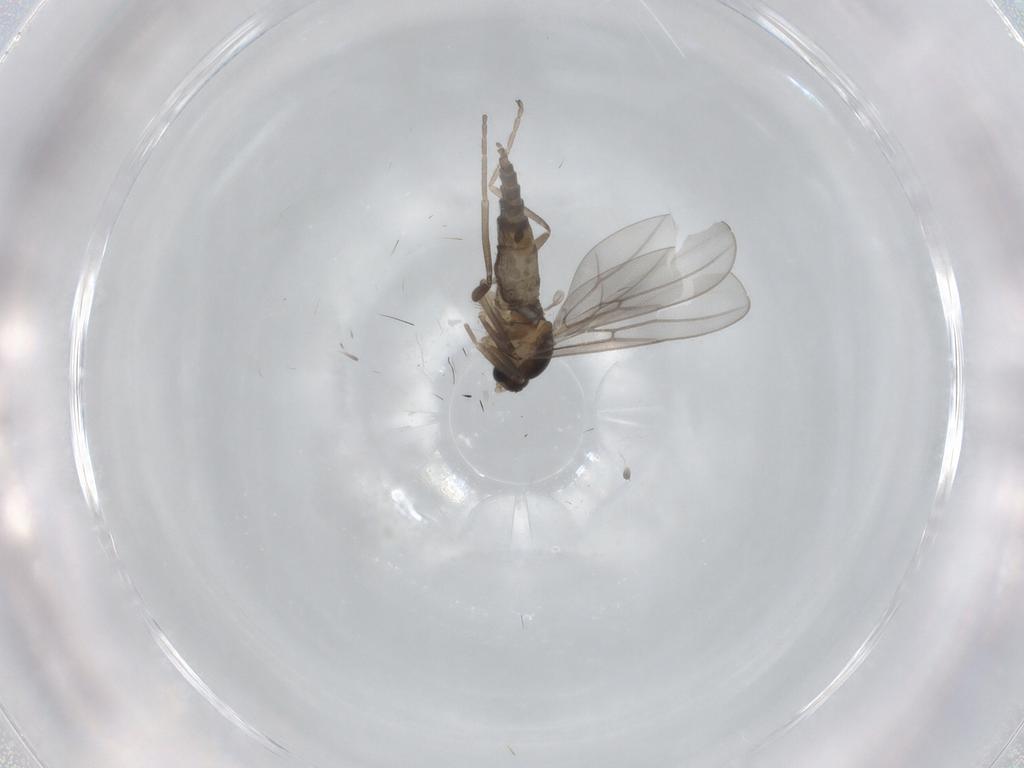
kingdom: Animalia
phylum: Arthropoda
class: Insecta
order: Diptera
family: Cecidomyiidae
